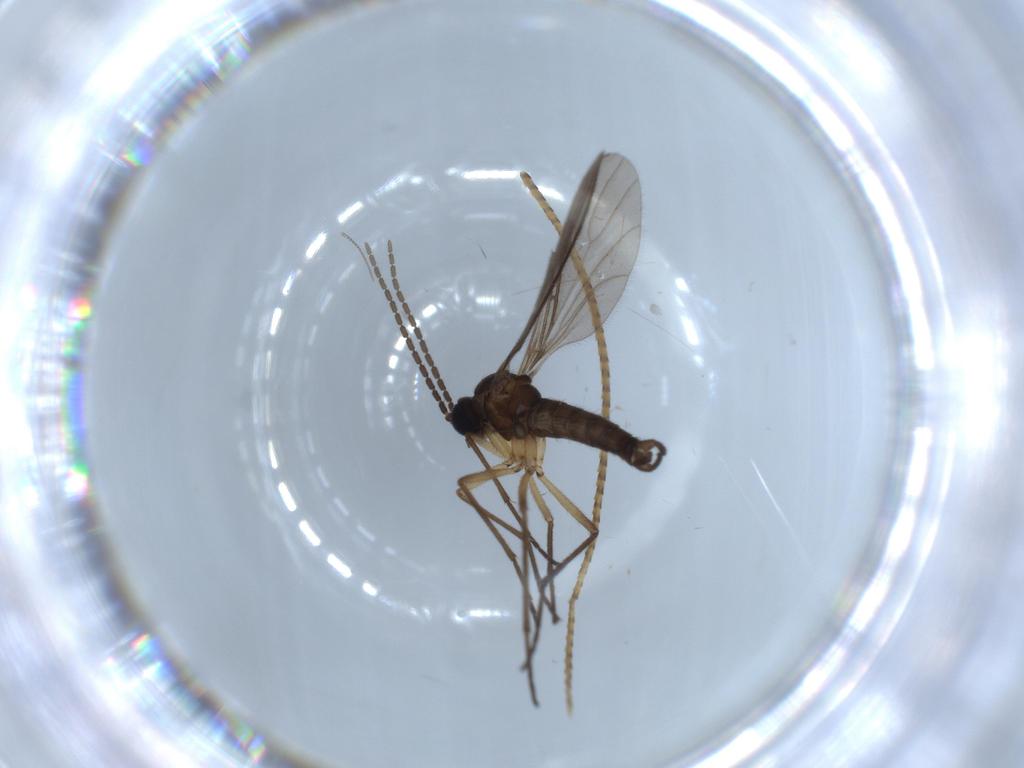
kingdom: Animalia
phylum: Arthropoda
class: Insecta
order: Diptera
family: Sciaridae
